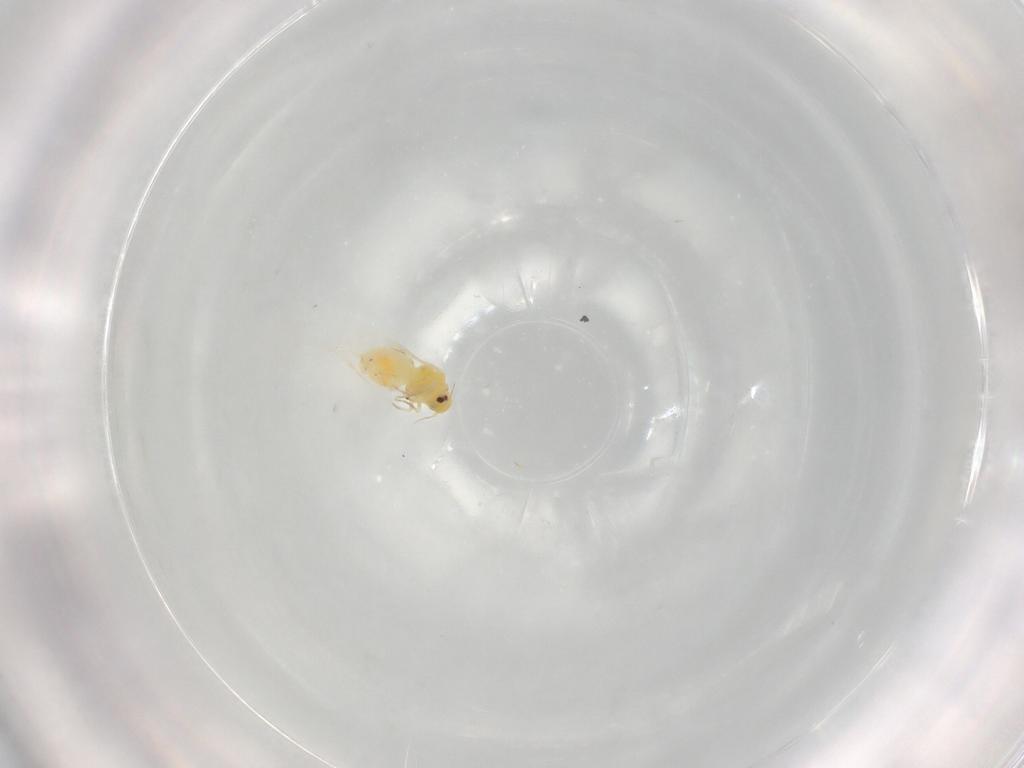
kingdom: Animalia
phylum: Arthropoda
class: Insecta
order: Hemiptera
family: Aleyrodidae
